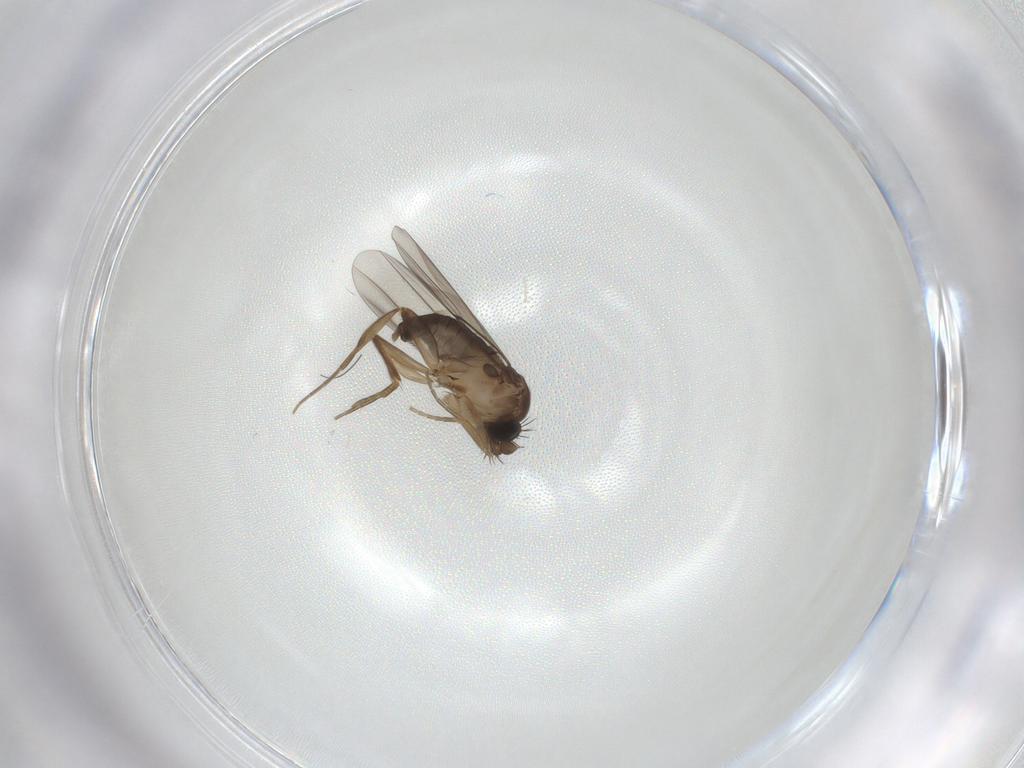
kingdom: Animalia
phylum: Arthropoda
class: Insecta
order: Diptera
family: Phoridae
